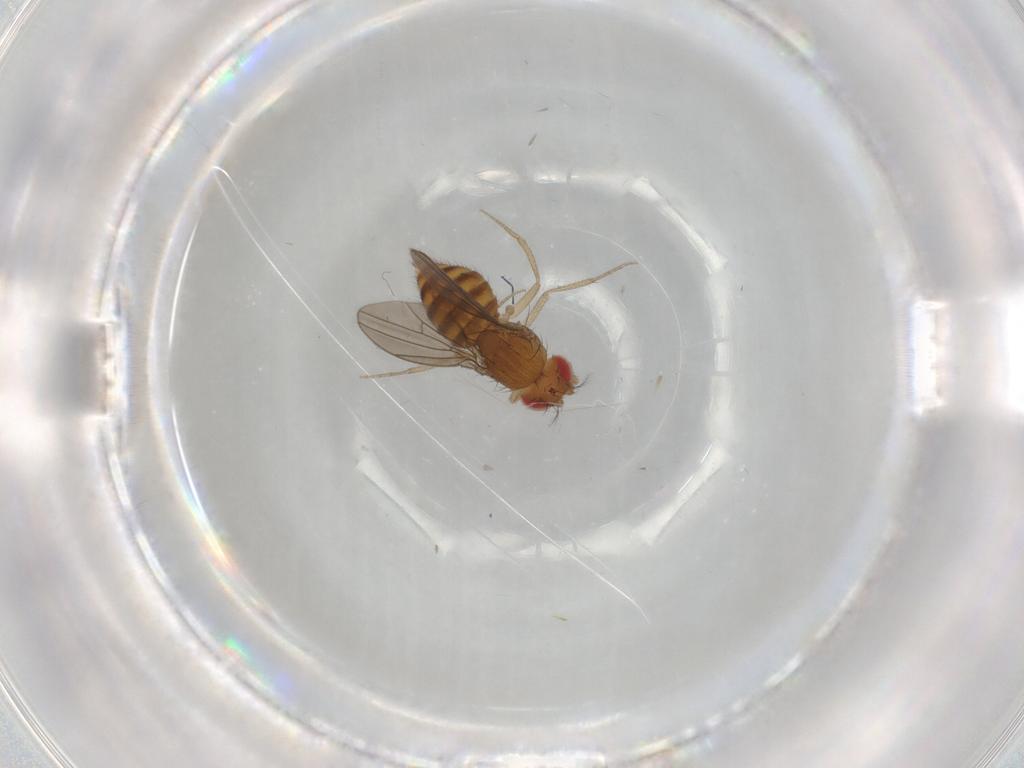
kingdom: Animalia
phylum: Arthropoda
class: Insecta
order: Diptera
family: Drosophilidae
